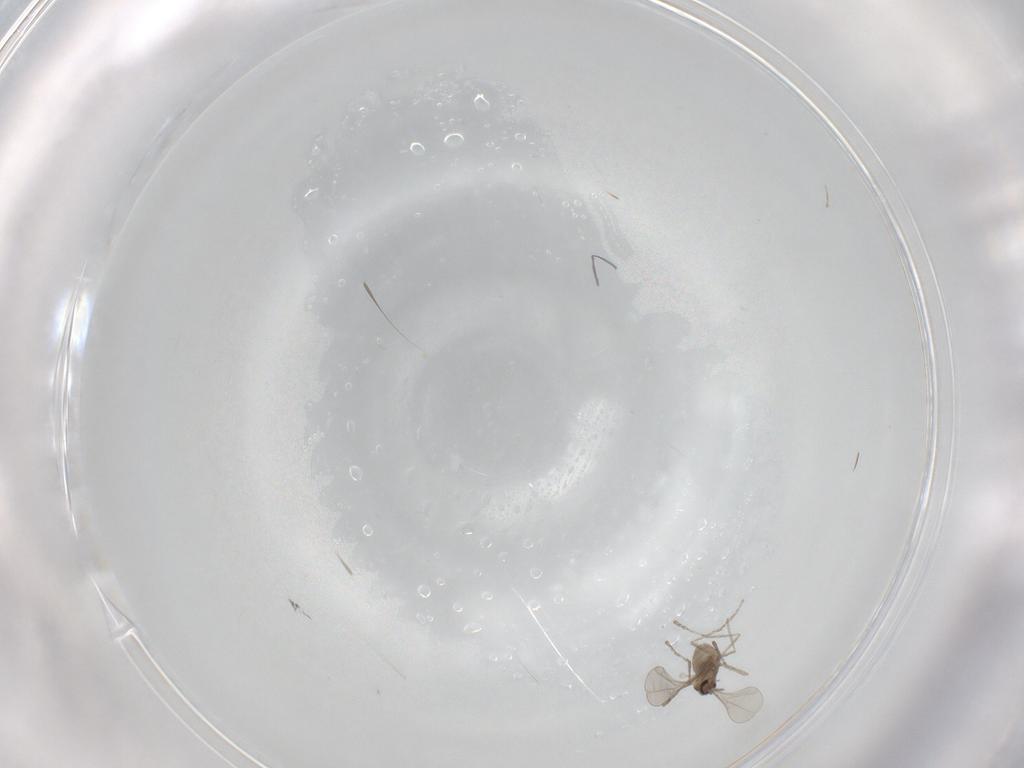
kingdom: Animalia
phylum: Arthropoda
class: Insecta
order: Diptera
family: Cecidomyiidae
